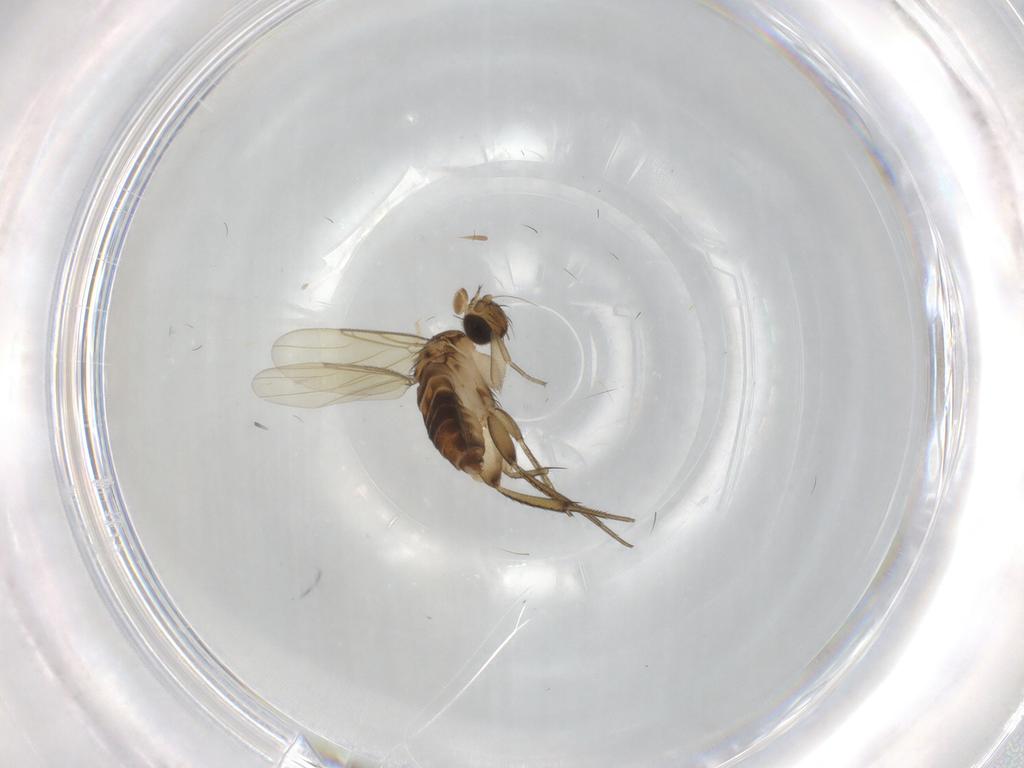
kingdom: Animalia
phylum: Arthropoda
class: Insecta
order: Diptera
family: Phoridae
